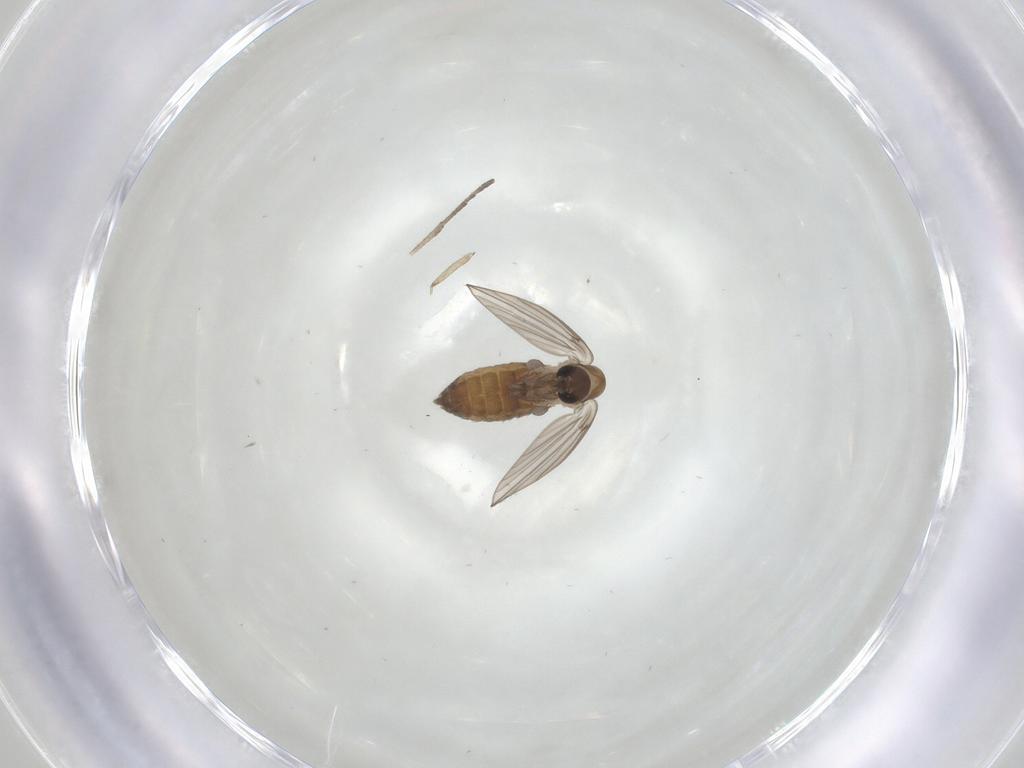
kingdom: Animalia
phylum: Arthropoda
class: Insecta
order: Diptera
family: Psychodidae
